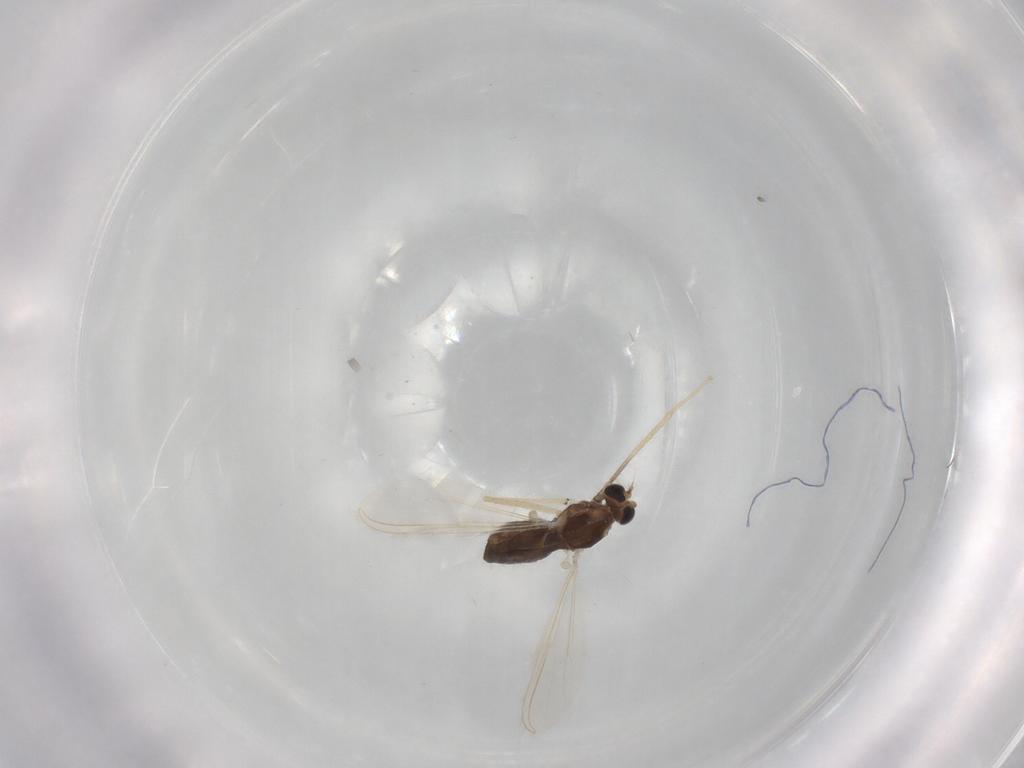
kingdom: Animalia
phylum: Arthropoda
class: Insecta
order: Diptera
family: Chironomidae
